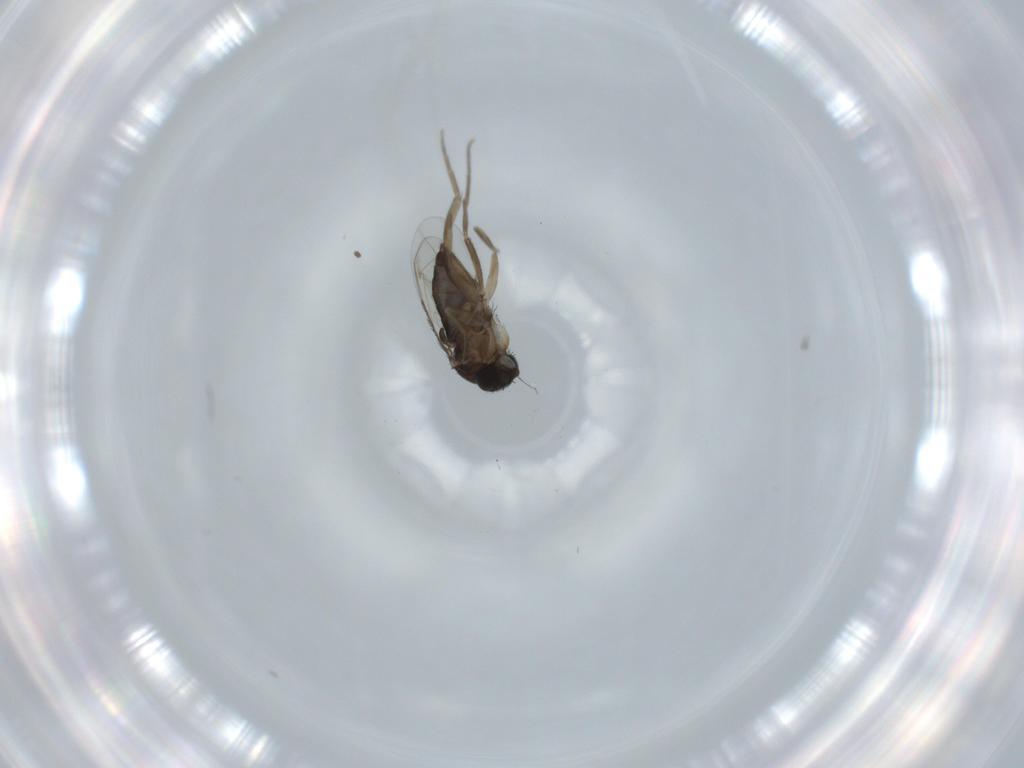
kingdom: Animalia
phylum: Arthropoda
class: Insecta
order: Diptera
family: Phoridae
